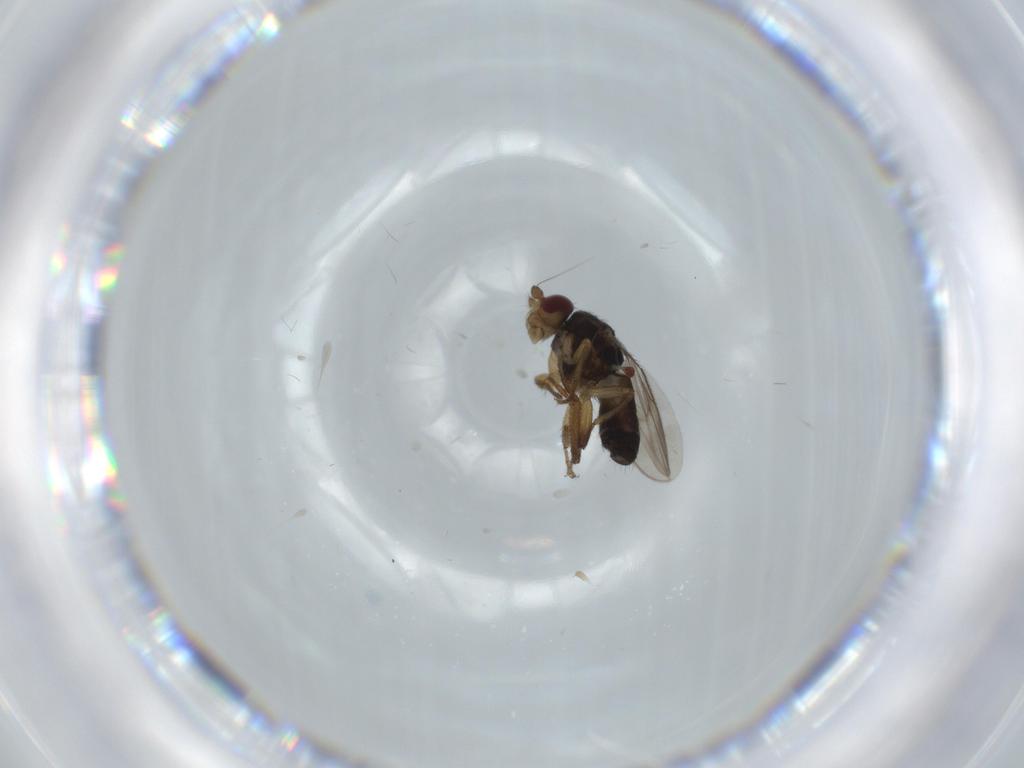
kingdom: Animalia
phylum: Arthropoda
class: Insecta
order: Diptera
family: Sphaeroceridae
